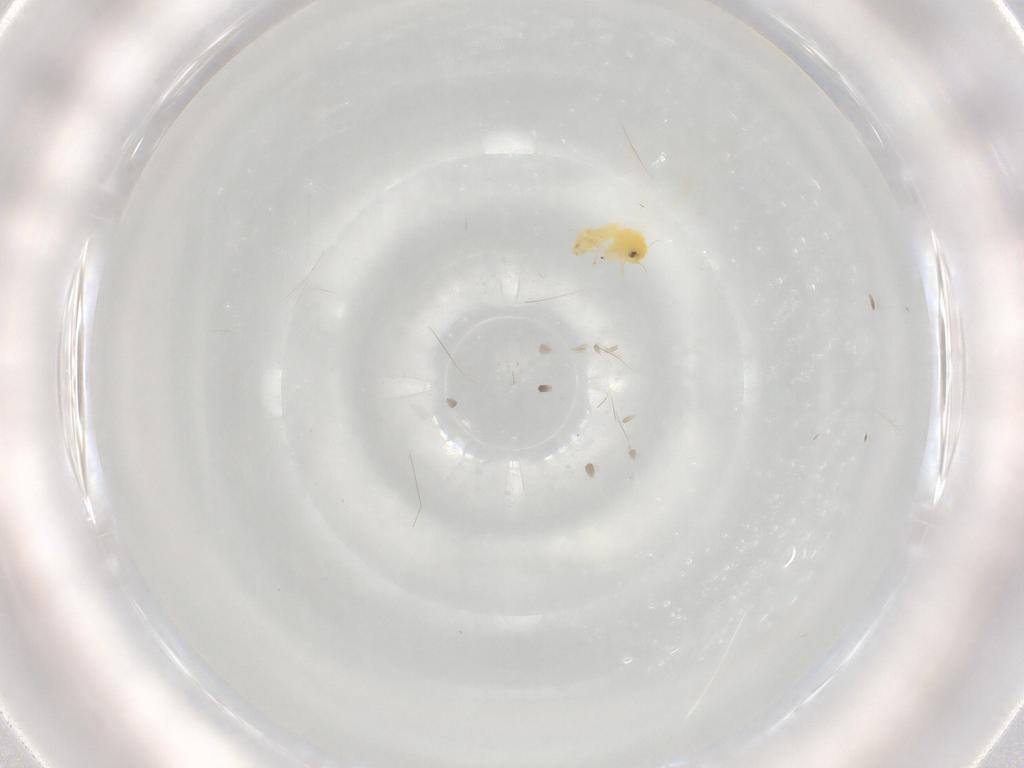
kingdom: Animalia
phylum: Arthropoda
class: Insecta
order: Hemiptera
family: Aleyrodidae
